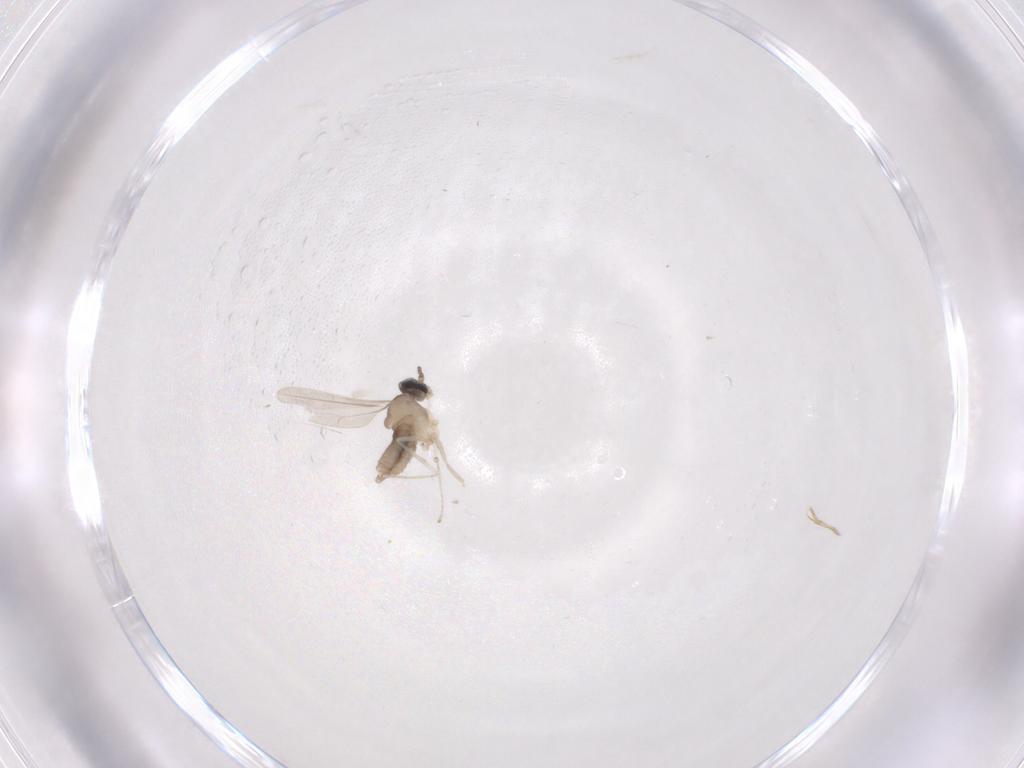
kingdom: Animalia
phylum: Arthropoda
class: Insecta
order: Diptera
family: Cecidomyiidae
